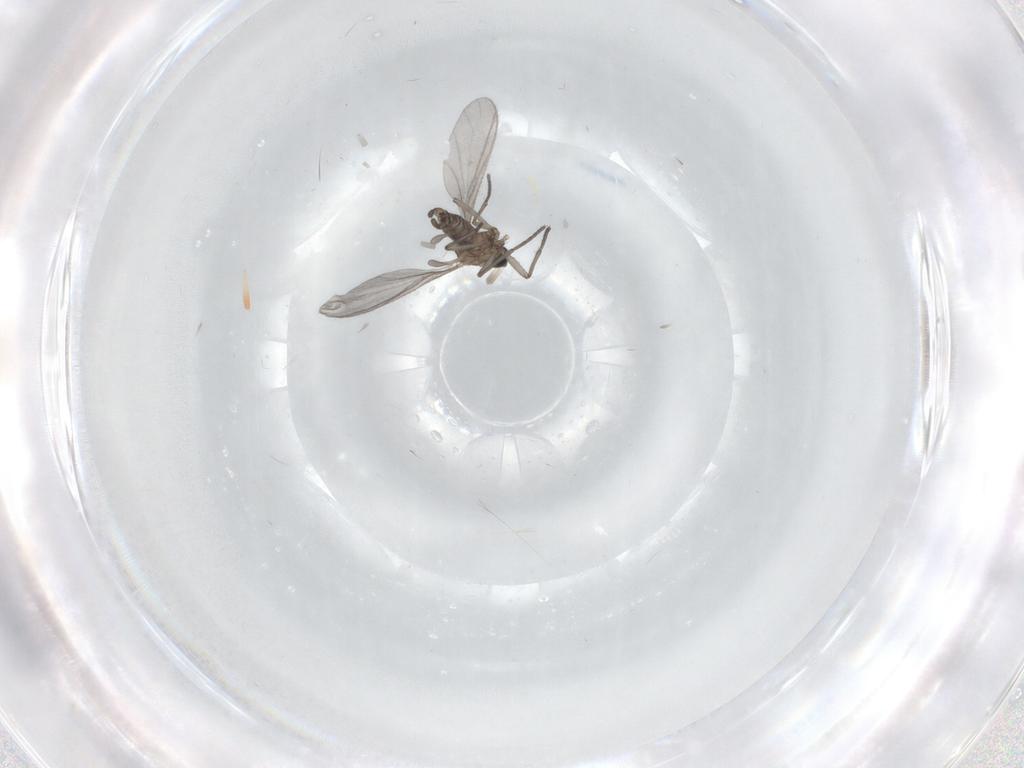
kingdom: Animalia
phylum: Arthropoda
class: Insecta
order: Diptera
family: Sciaridae
